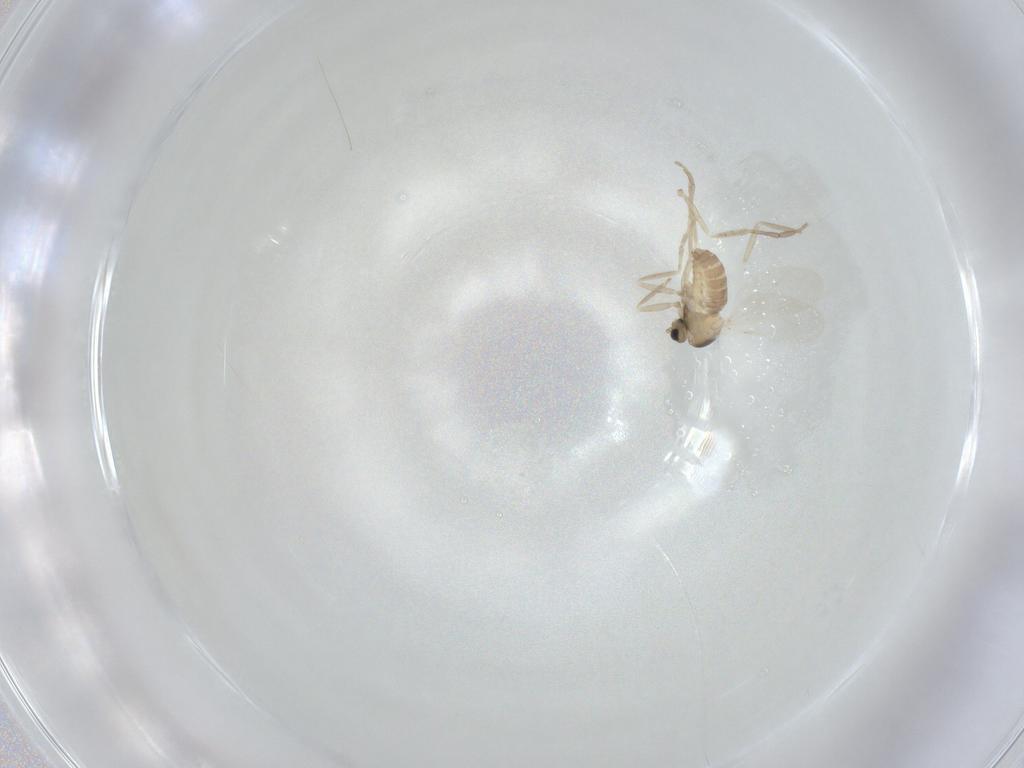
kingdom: Animalia
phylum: Arthropoda
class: Insecta
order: Diptera
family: Cecidomyiidae
